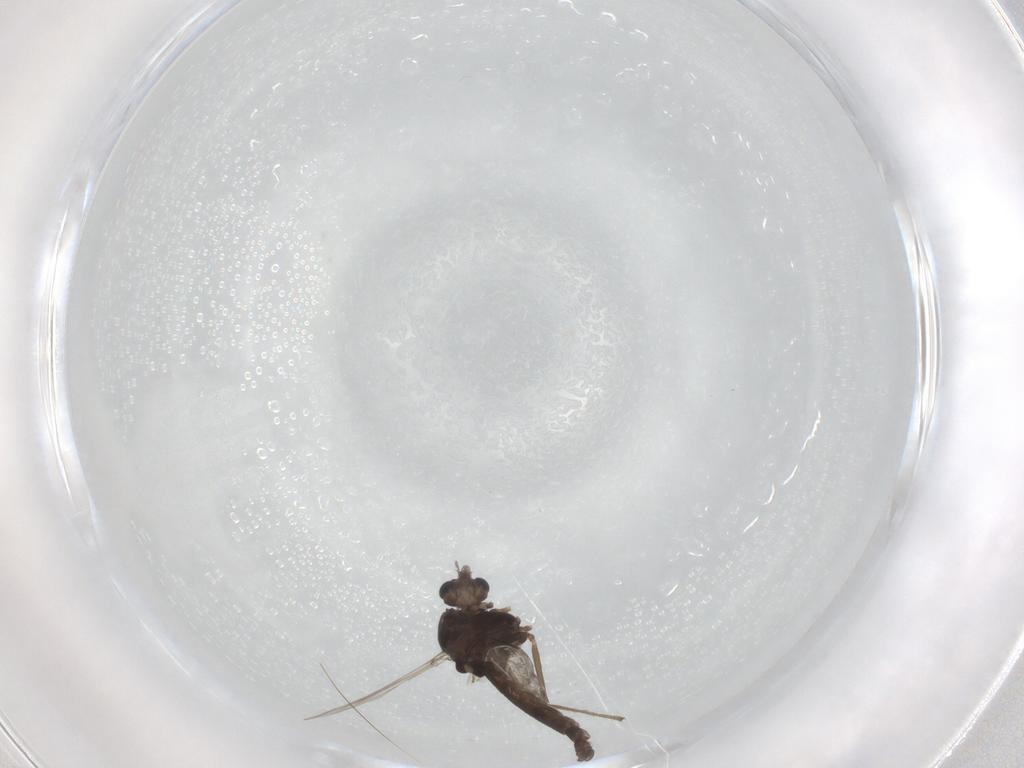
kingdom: Animalia
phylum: Arthropoda
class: Insecta
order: Diptera
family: Chironomidae
